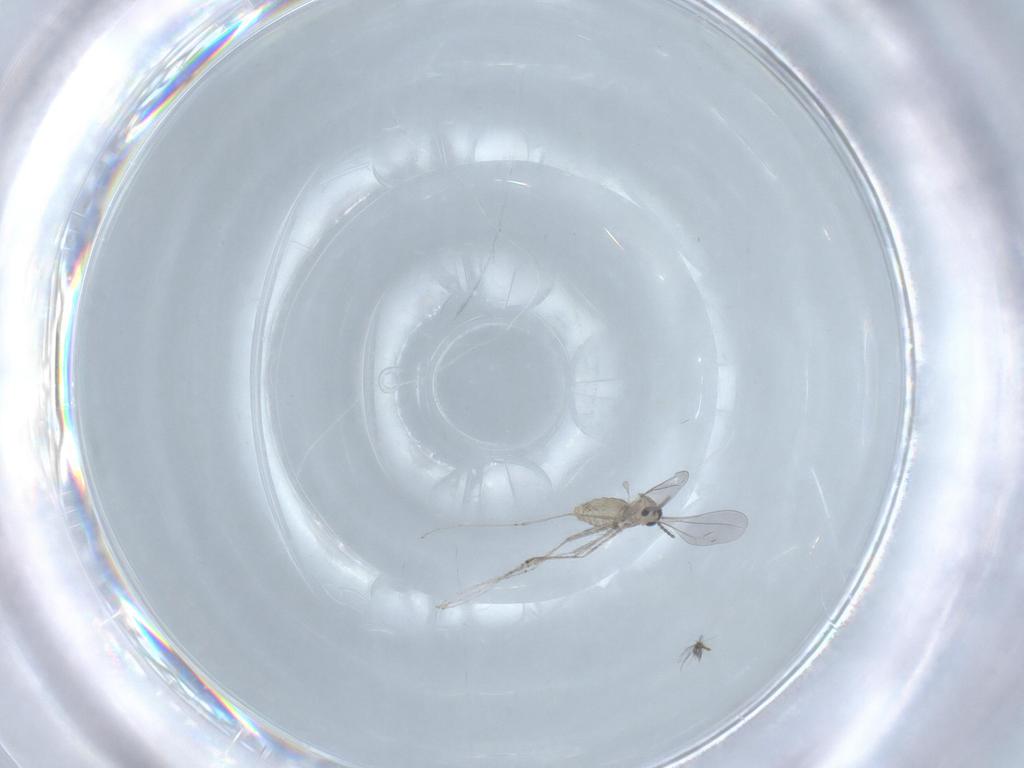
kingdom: Animalia
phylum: Arthropoda
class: Insecta
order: Diptera
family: Ceratopogonidae
